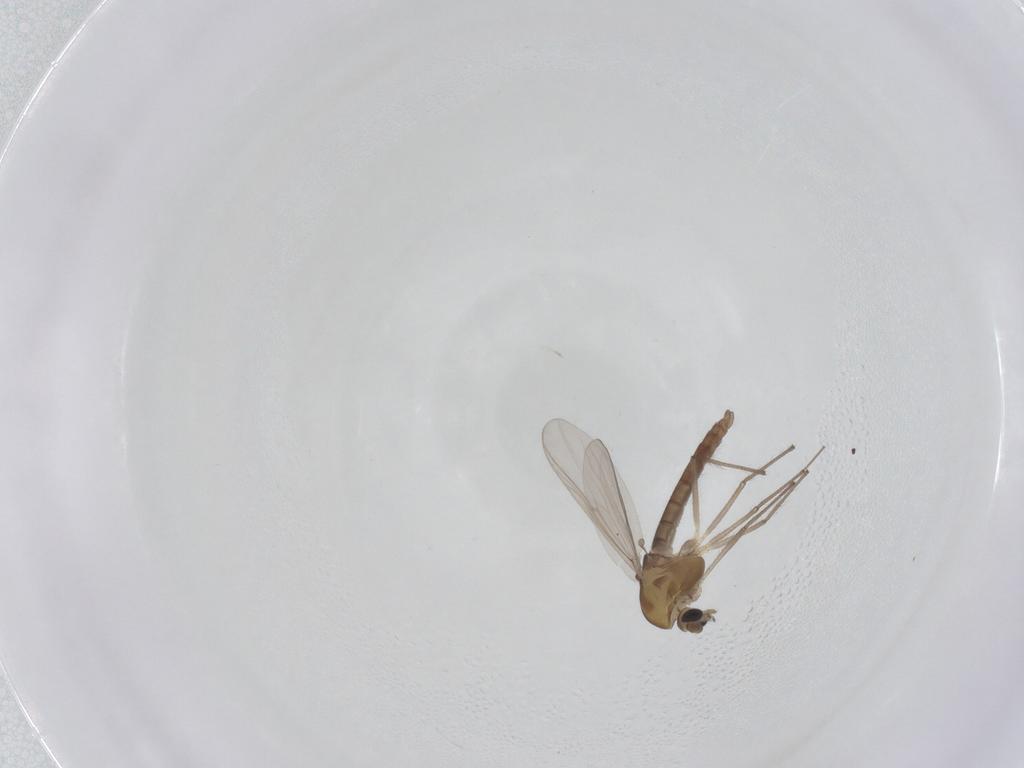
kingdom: Animalia
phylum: Arthropoda
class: Insecta
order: Diptera
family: Chironomidae
